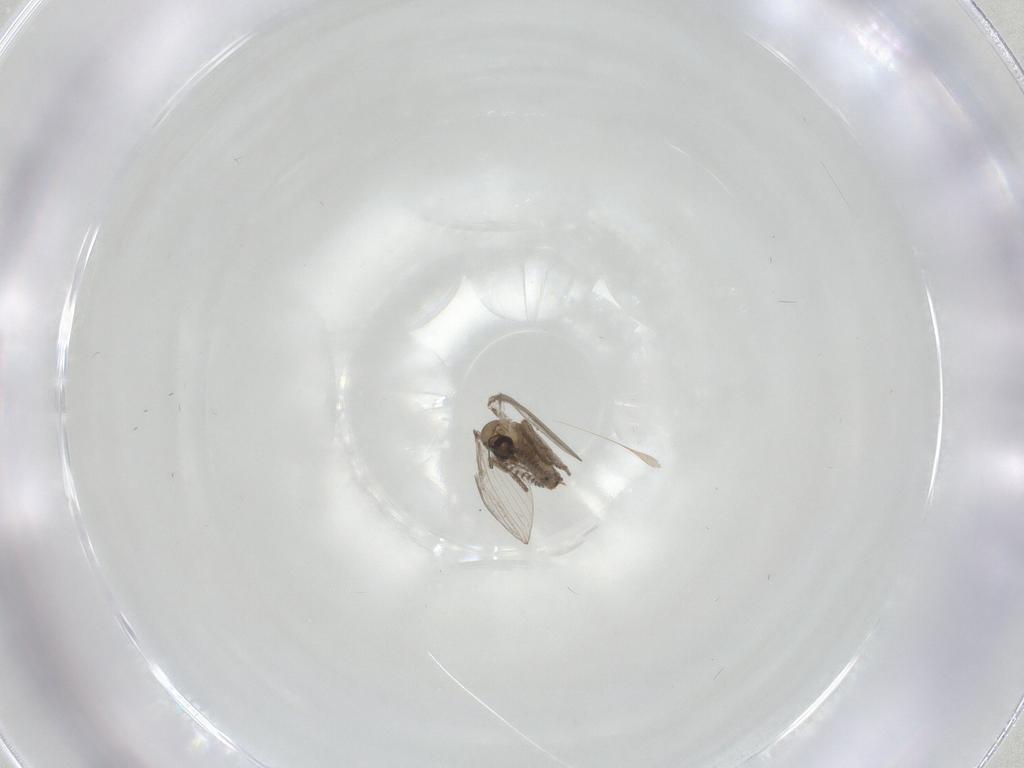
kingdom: Animalia
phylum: Arthropoda
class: Insecta
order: Diptera
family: Psychodidae
